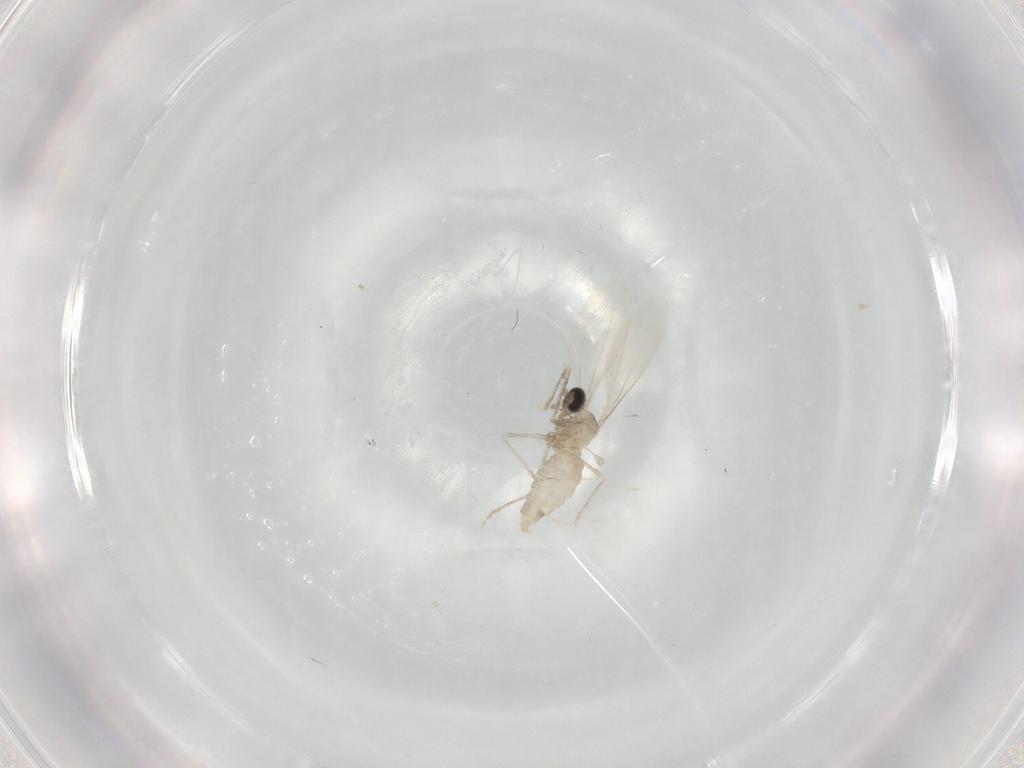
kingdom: Animalia
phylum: Arthropoda
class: Insecta
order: Diptera
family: Cecidomyiidae
